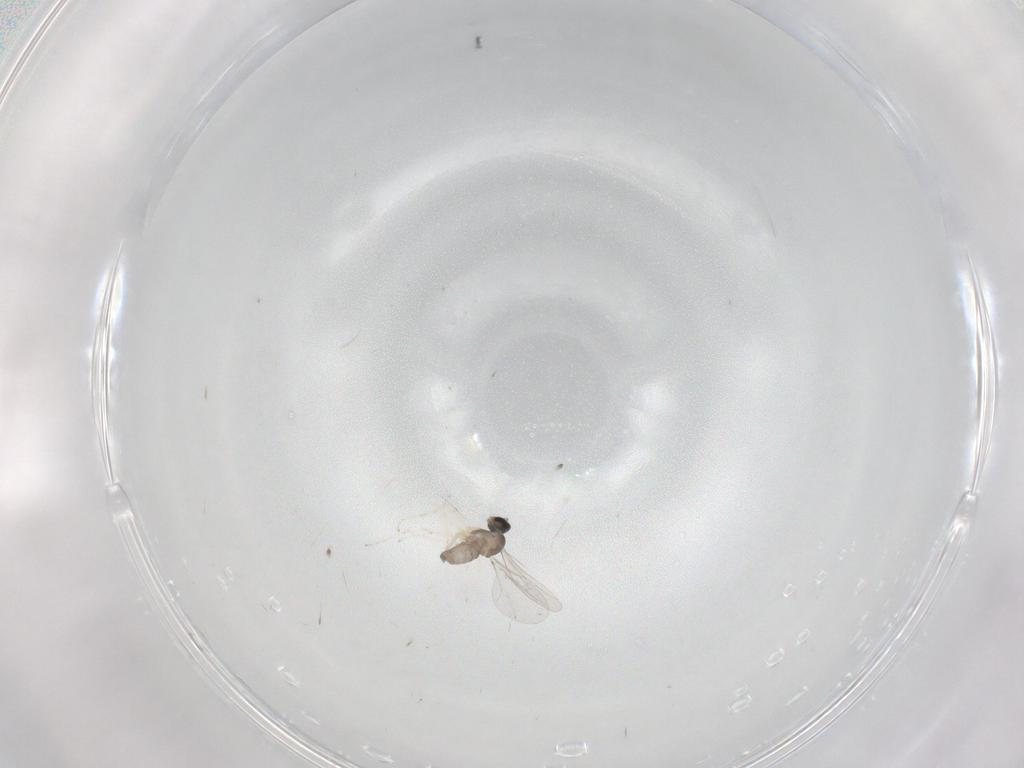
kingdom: Animalia
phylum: Arthropoda
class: Insecta
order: Diptera
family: Cecidomyiidae
